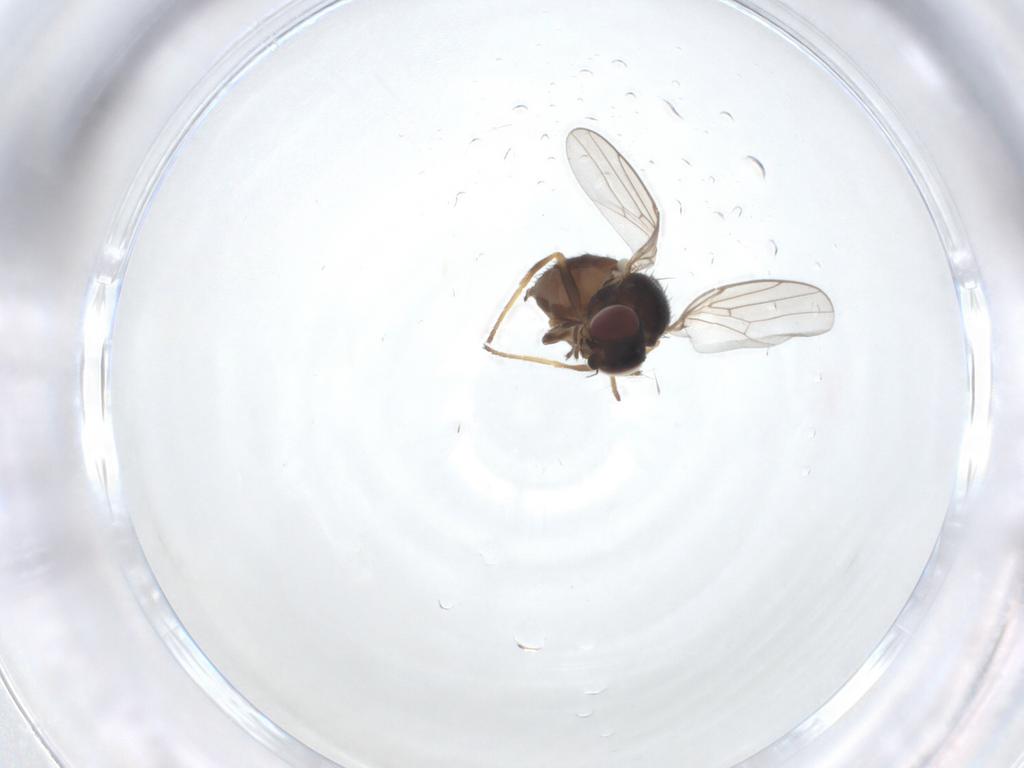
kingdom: Animalia
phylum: Arthropoda
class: Insecta
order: Diptera
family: Chloropidae
